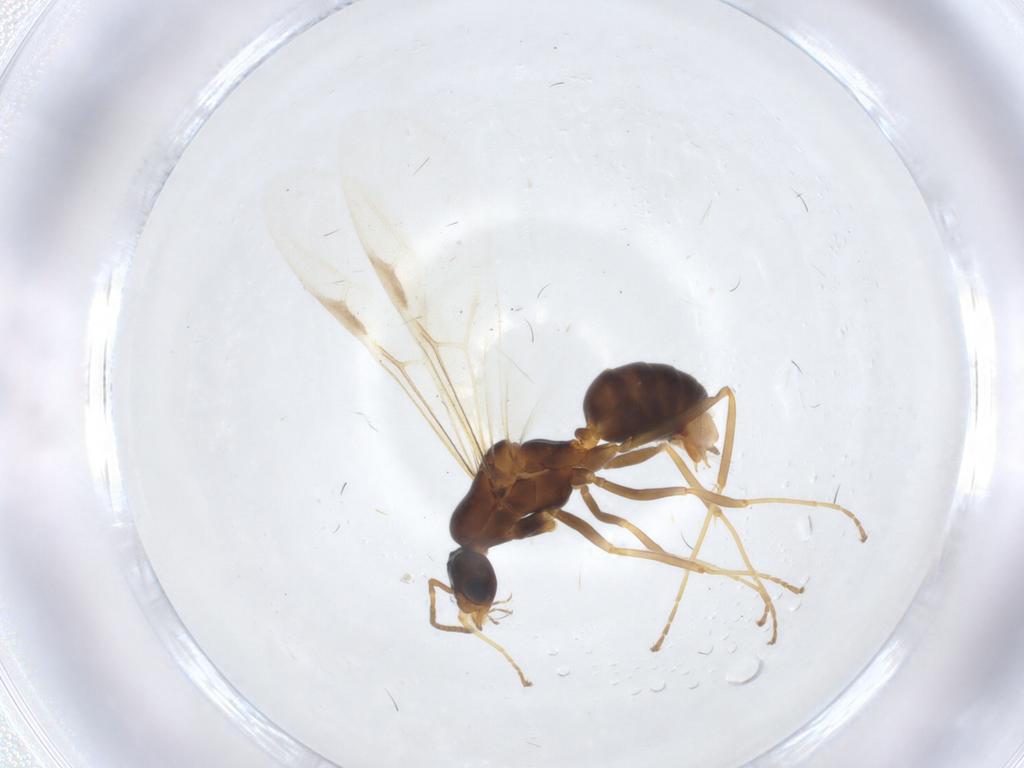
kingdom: Animalia
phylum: Arthropoda
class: Insecta
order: Hymenoptera
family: Formicidae
